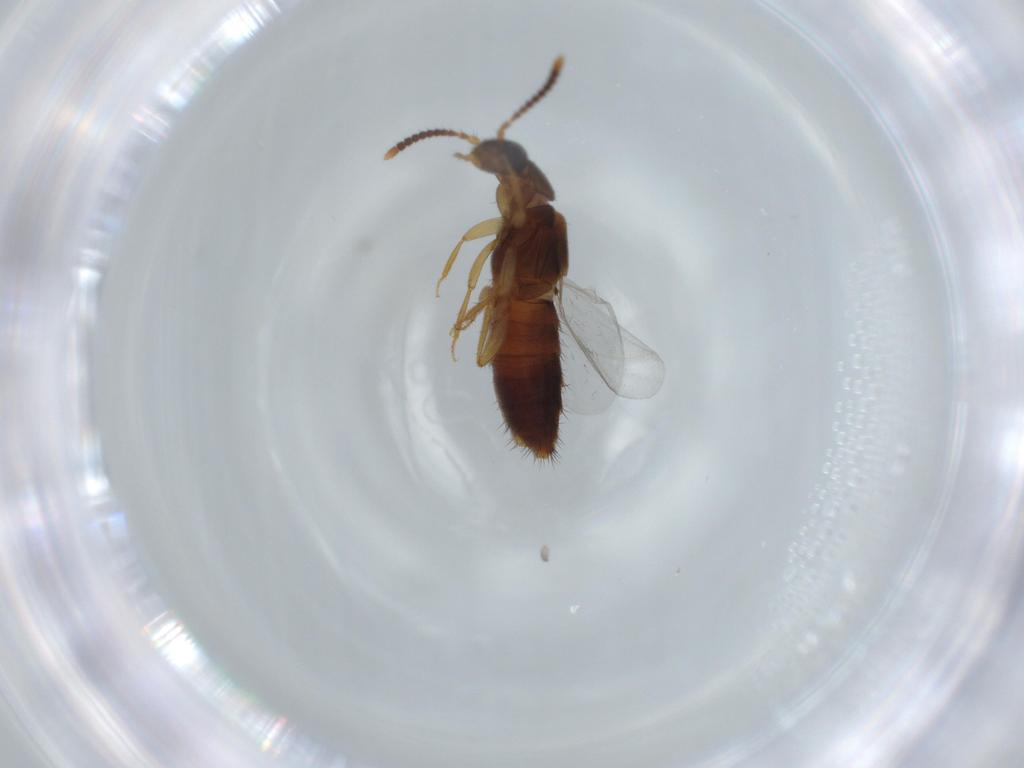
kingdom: Animalia
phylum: Arthropoda
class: Insecta
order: Coleoptera
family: Staphylinidae
